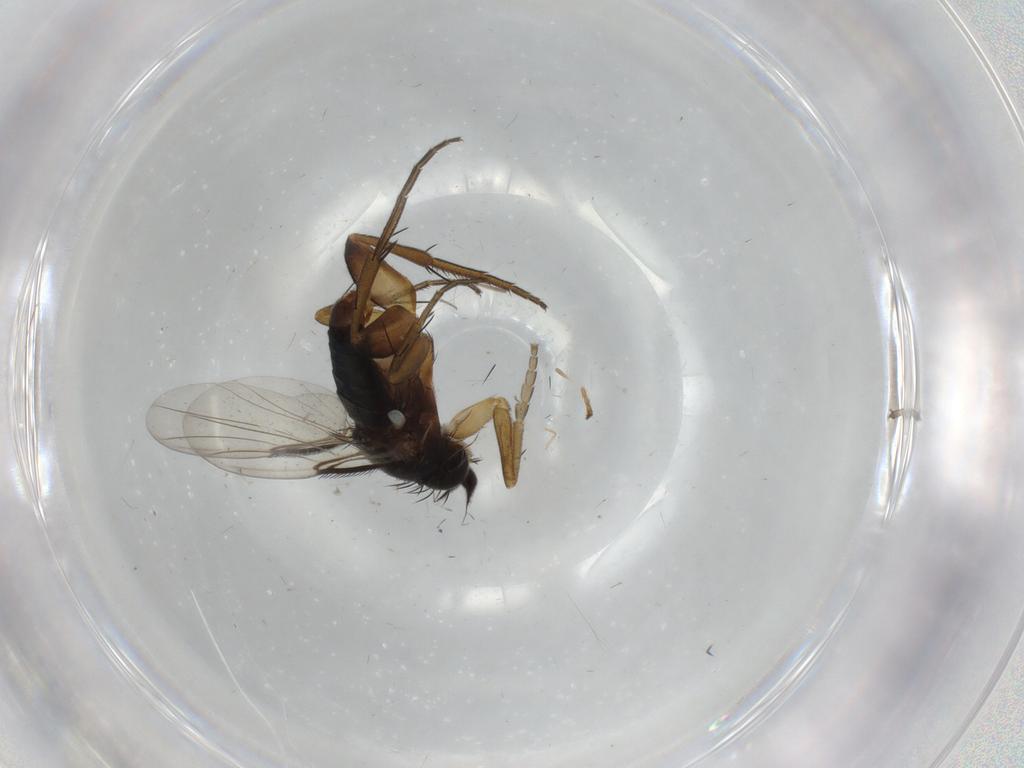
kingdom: Animalia
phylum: Arthropoda
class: Insecta
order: Diptera
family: Phoridae
